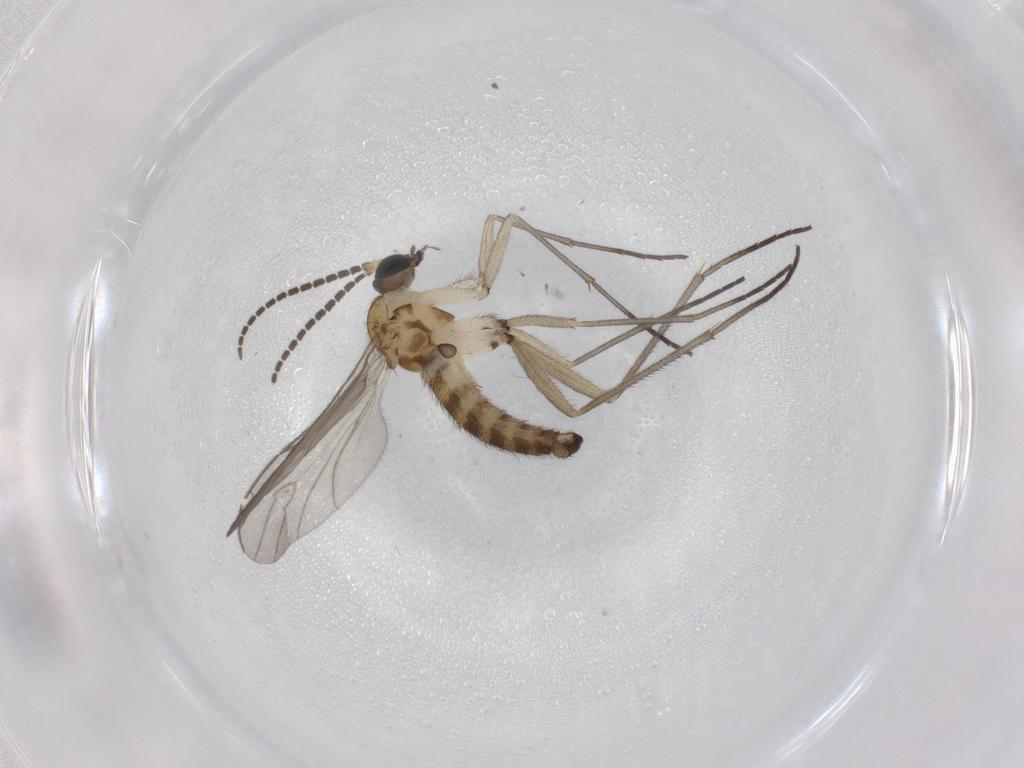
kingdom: Animalia
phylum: Arthropoda
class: Insecta
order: Diptera
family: Sciaridae
